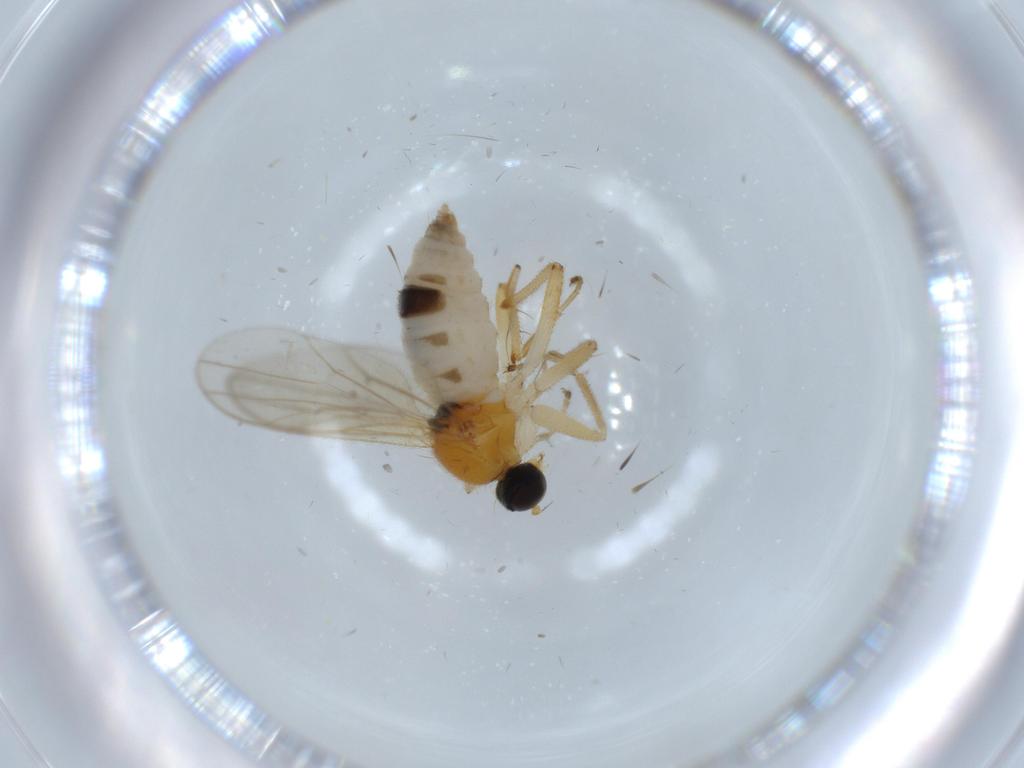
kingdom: Animalia
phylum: Arthropoda
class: Insecta
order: Diptera
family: Hybotidae
